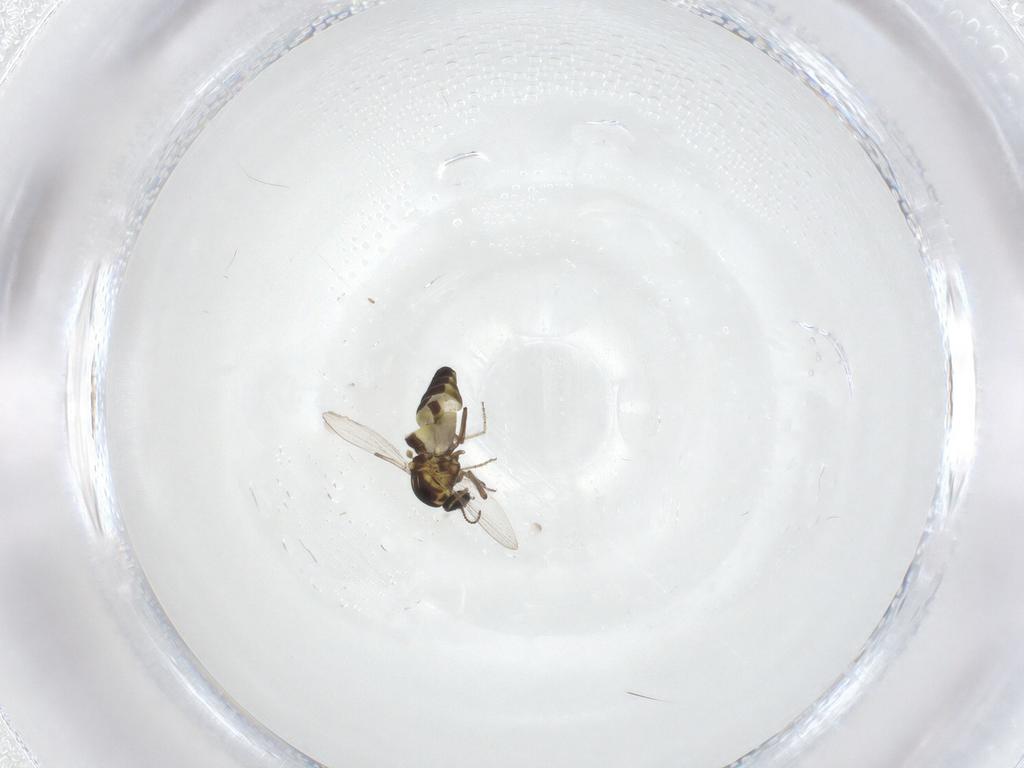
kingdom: Animalia
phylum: Arthropoda
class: Insecta
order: Diptera
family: Ceratopogonidae
